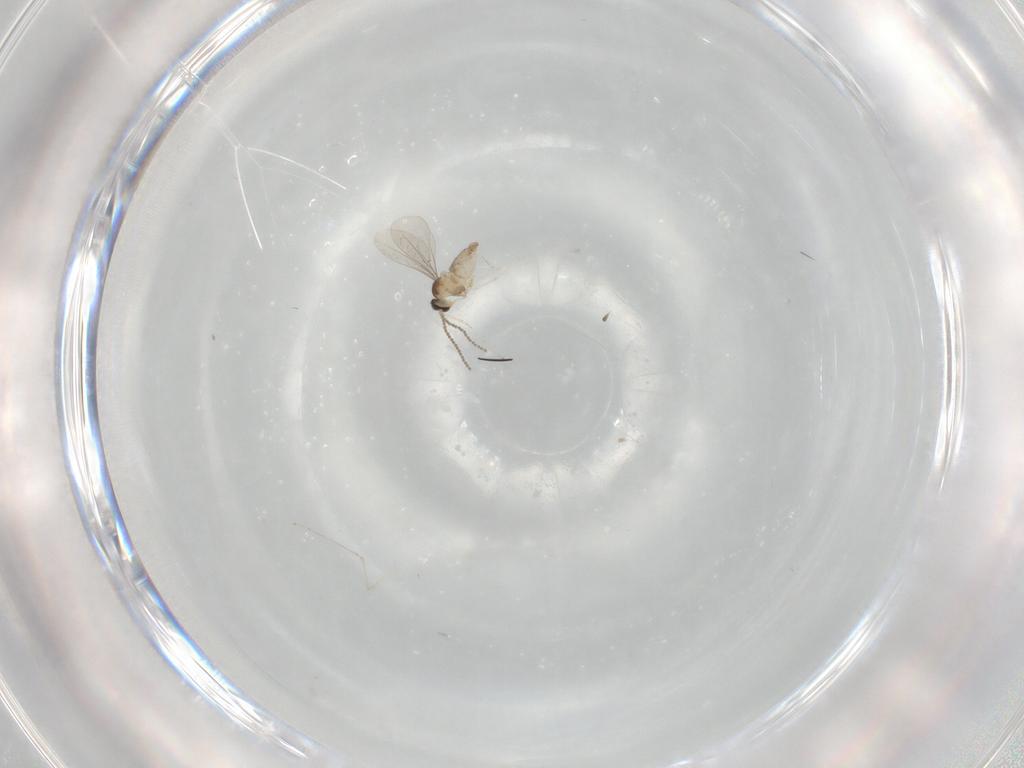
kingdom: Animalia
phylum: Arthropoda
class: Insecta
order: Diptera
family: Cecidomyiidae
